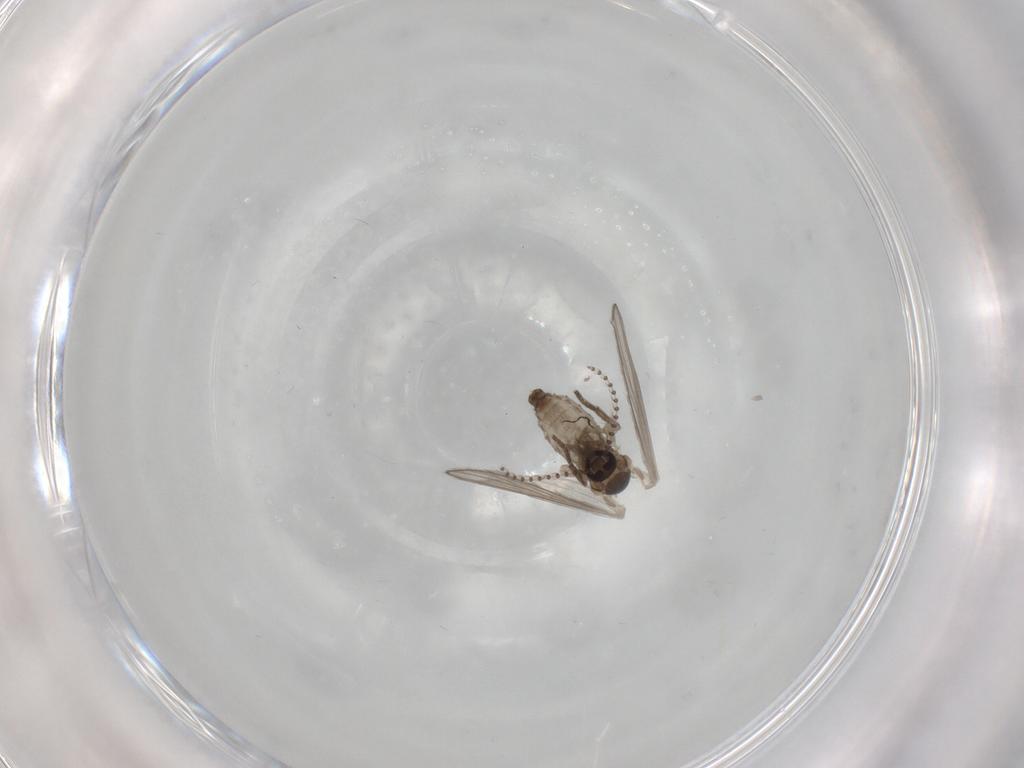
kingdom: Animalia
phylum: Arthropoda
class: Insecta
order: Diptera
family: Psychodidae
